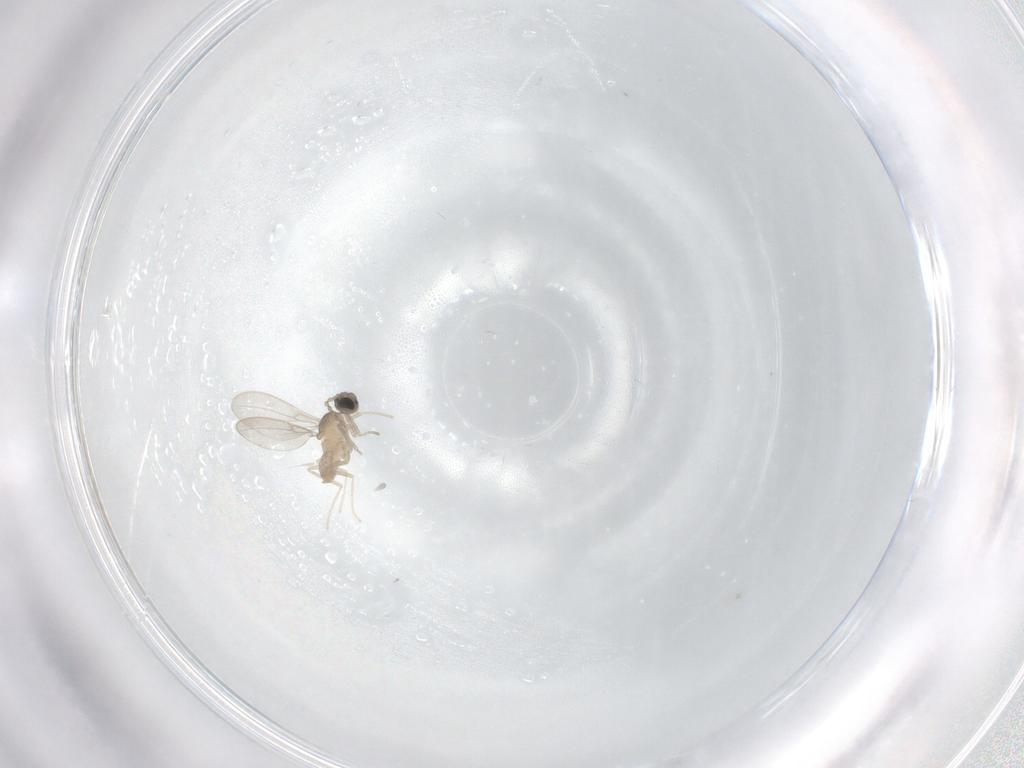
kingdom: Animalia
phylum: Arthropoda
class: Insecta
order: Diptera
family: Cecidomyiidae
